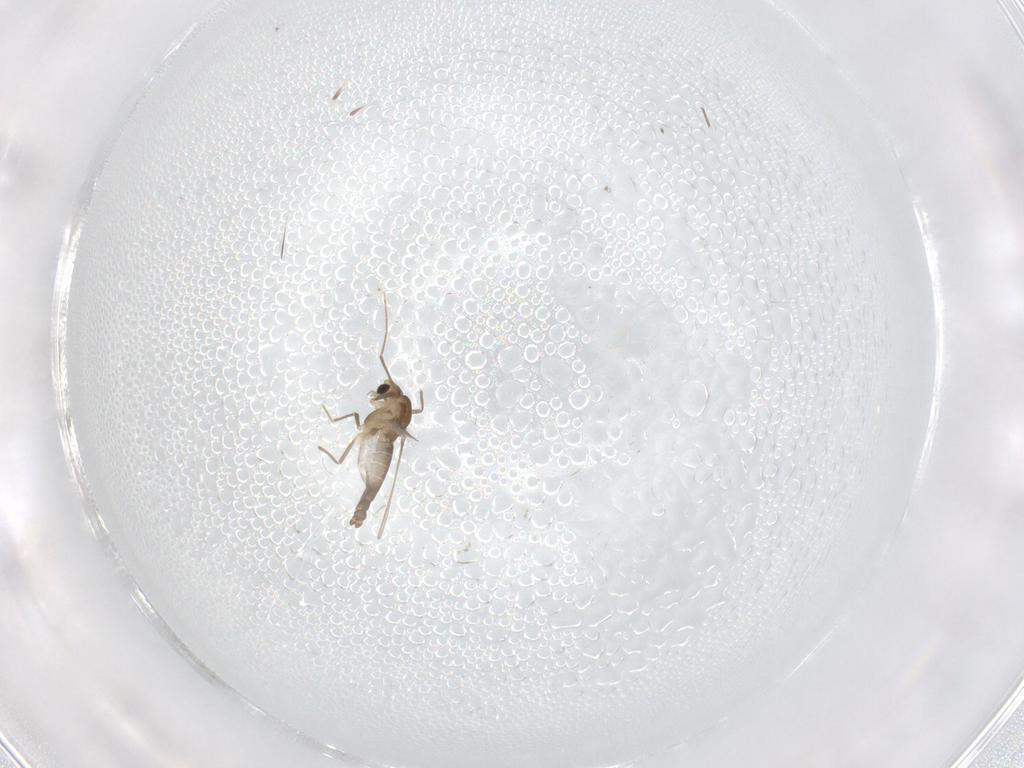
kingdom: Animalia
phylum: Arthropoda
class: Insecta
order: Diptera
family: Chironomidae
